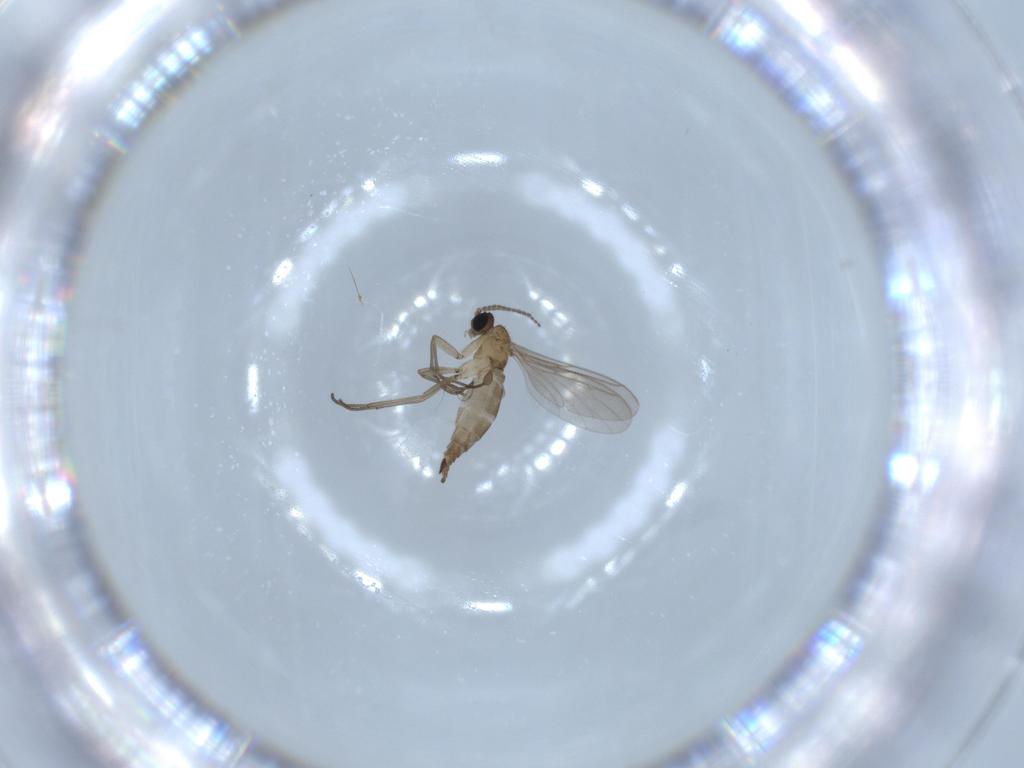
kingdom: Animalia
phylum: Arthropoda
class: Insecta
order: Diptera
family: Sciaridae
